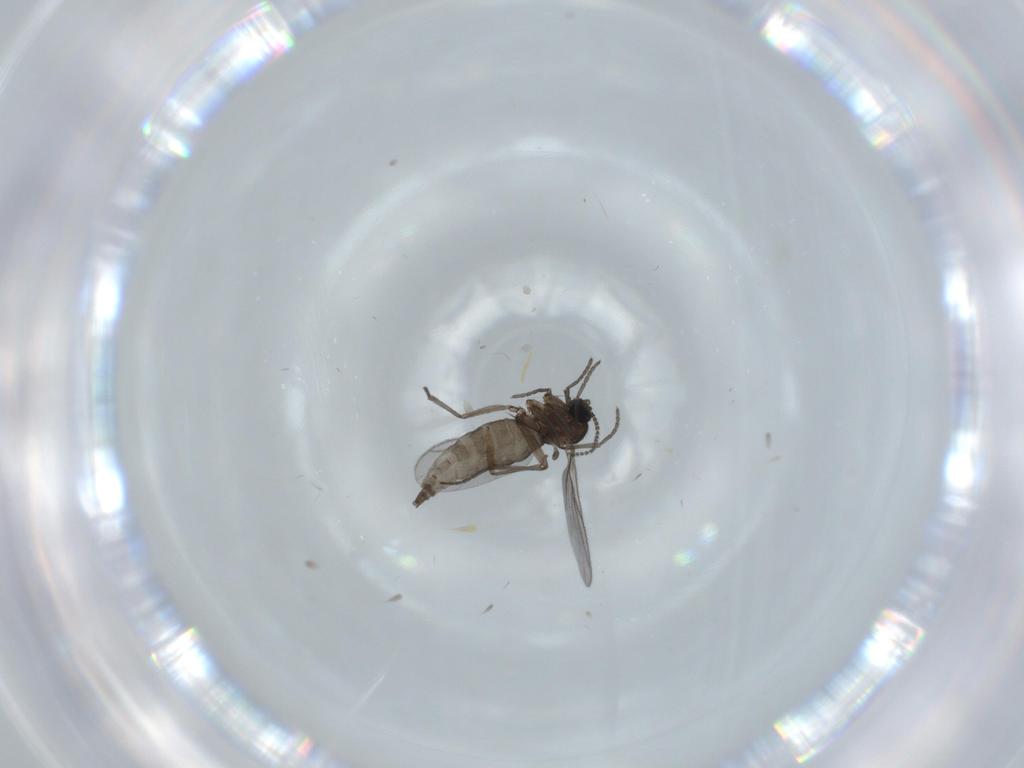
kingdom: Animalia
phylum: Arthropoda
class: Insecta
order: Diptera
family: Sciaridae
